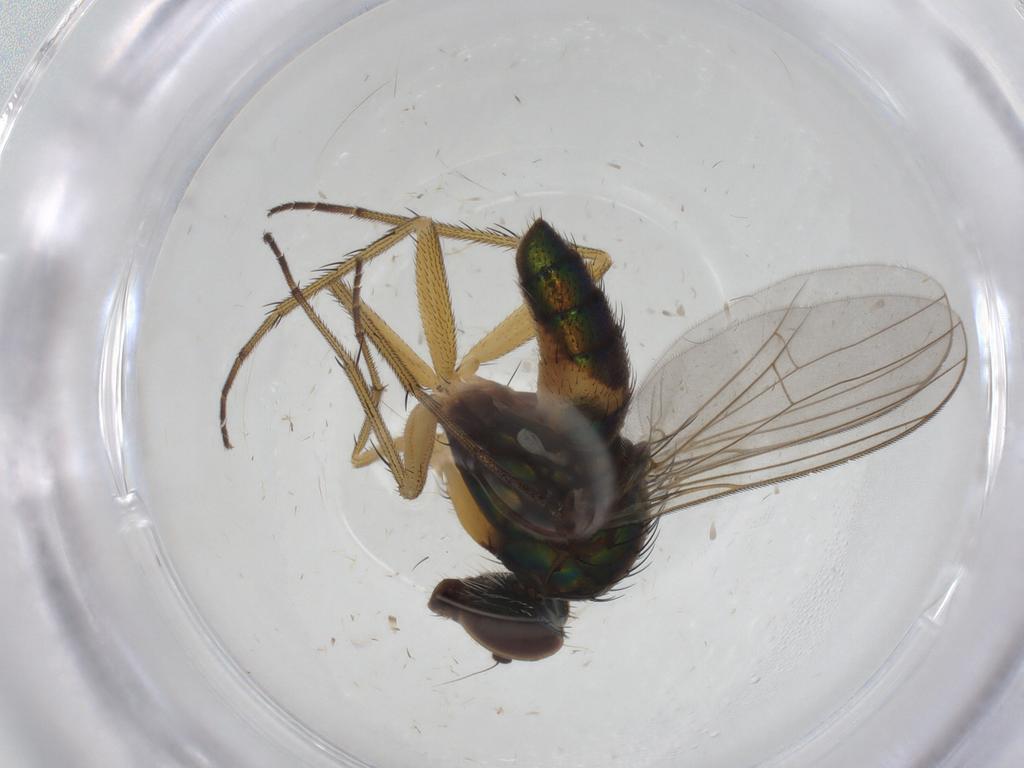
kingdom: Animalia
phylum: Arthropoda
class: Insecta
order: Diptera
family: Dolichopodidae
